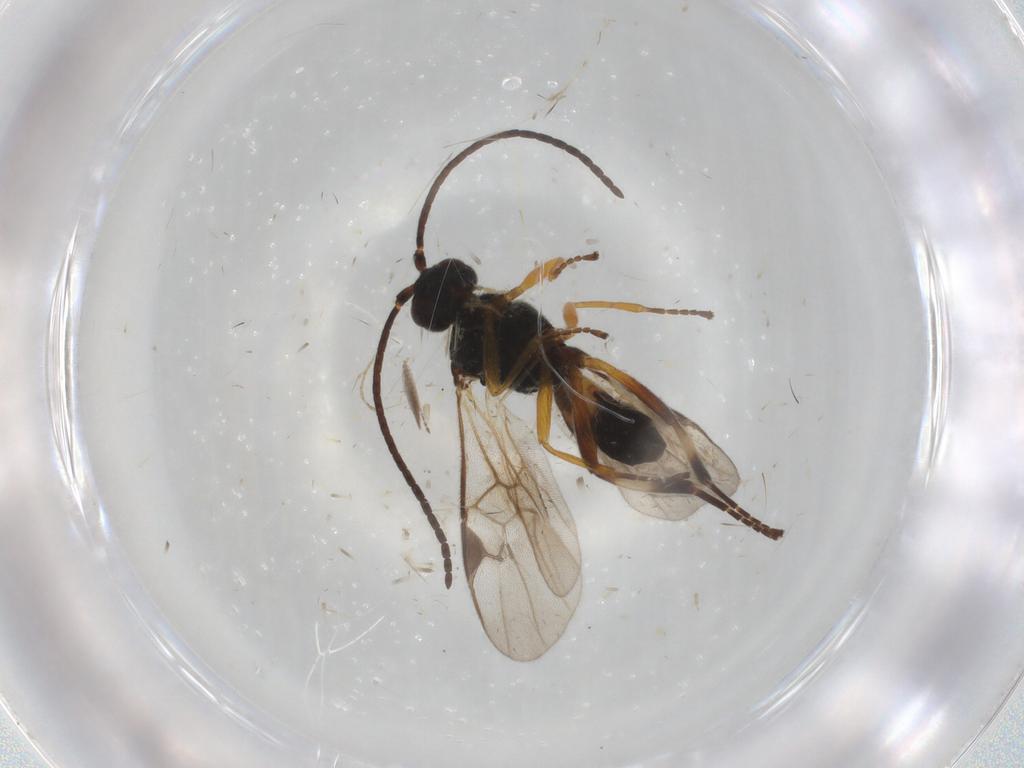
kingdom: Animalia
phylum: Arthropoda
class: Insecta
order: Hymenoptera
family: Braconidae
